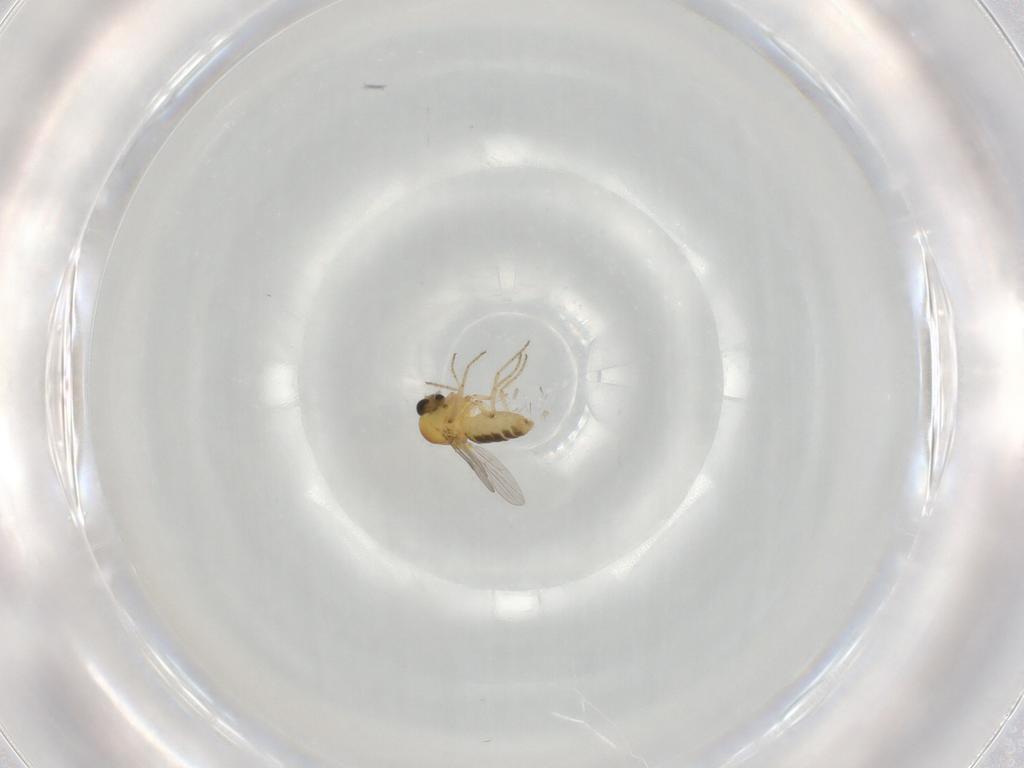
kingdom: Animalia
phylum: Arthropoda
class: Insecta
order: Diptera
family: Ceratopogonidae
